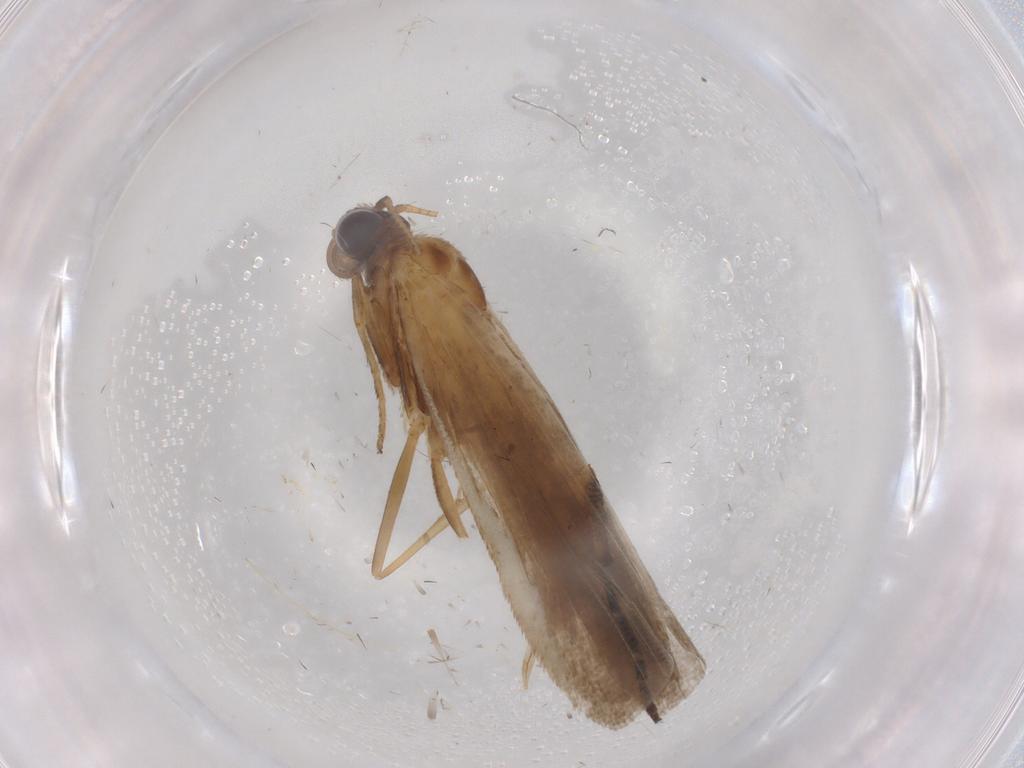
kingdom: Animalia
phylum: Arthropoda
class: Insecta
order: Lepidoptera
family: Noctuidae
